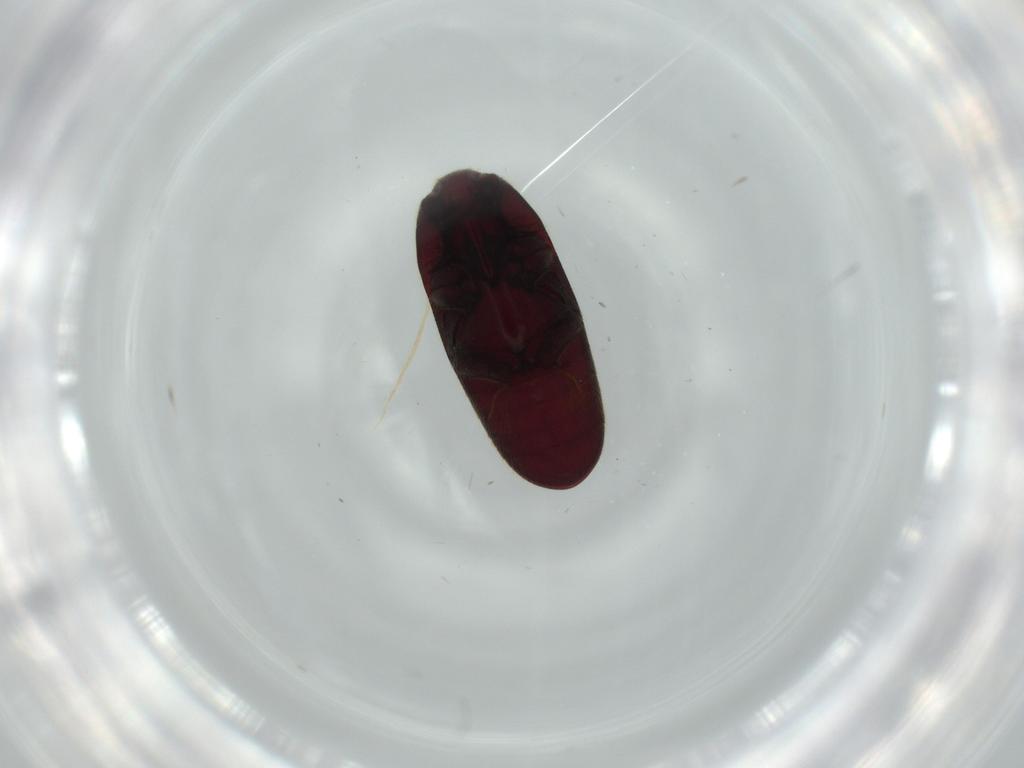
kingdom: Animalia
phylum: Arthropoda
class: Insecta
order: Coleoptera
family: Throscidae
